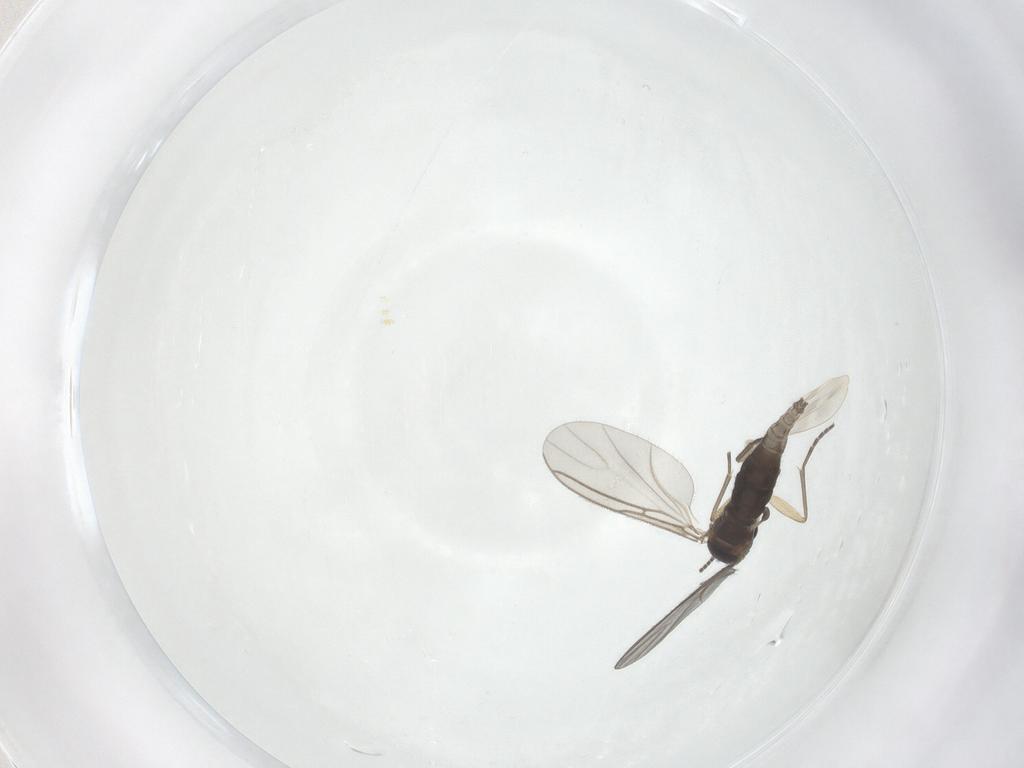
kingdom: Animalia
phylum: Arthropoda
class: Insecta
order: Diptera
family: Sciaridae
